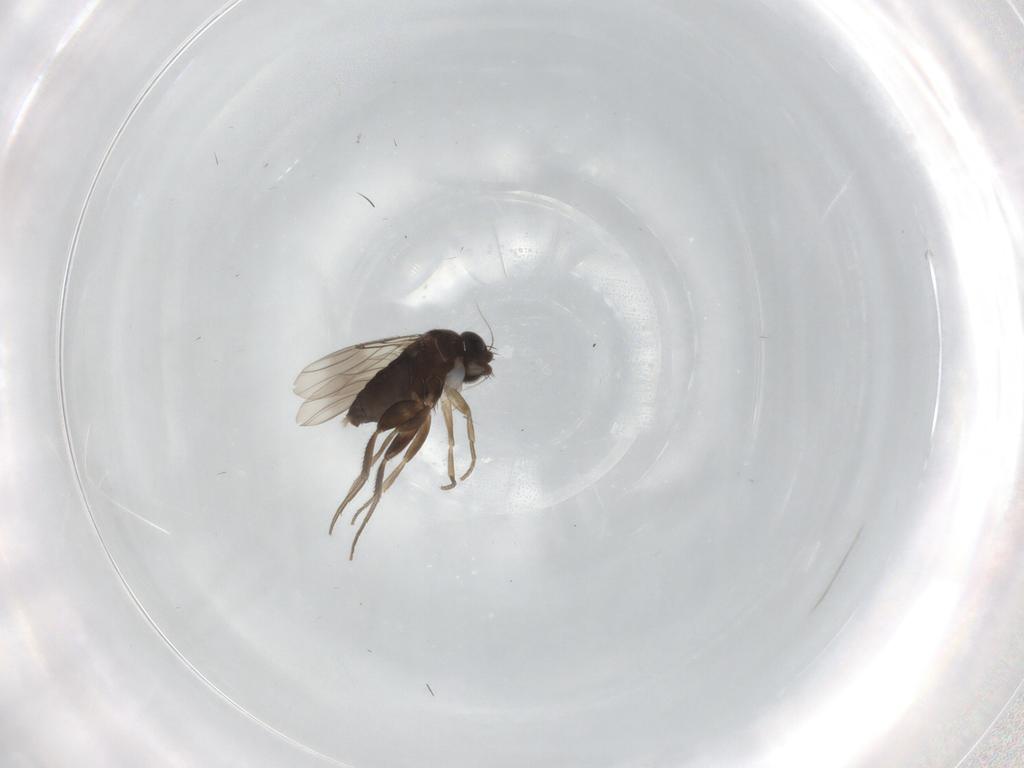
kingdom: Animalia
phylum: Arthropoda
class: Insecta
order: Diptera
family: Phoridae
